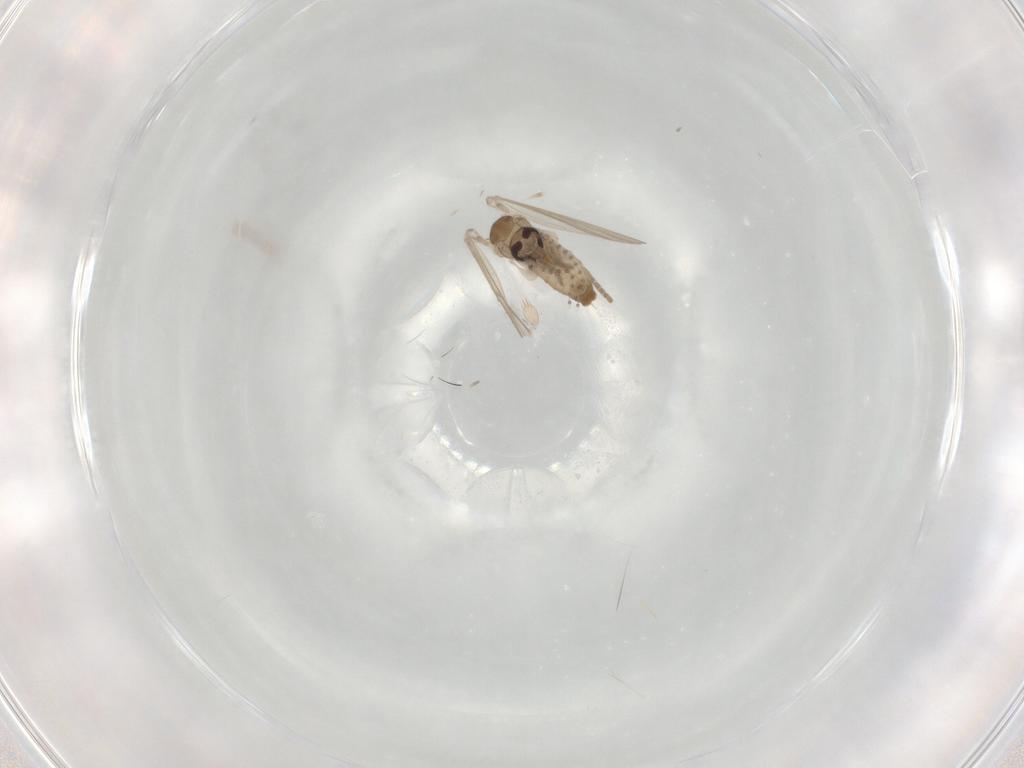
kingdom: Animalia
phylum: Arthropoda
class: Insecta
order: Diptera
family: Psychodidae
